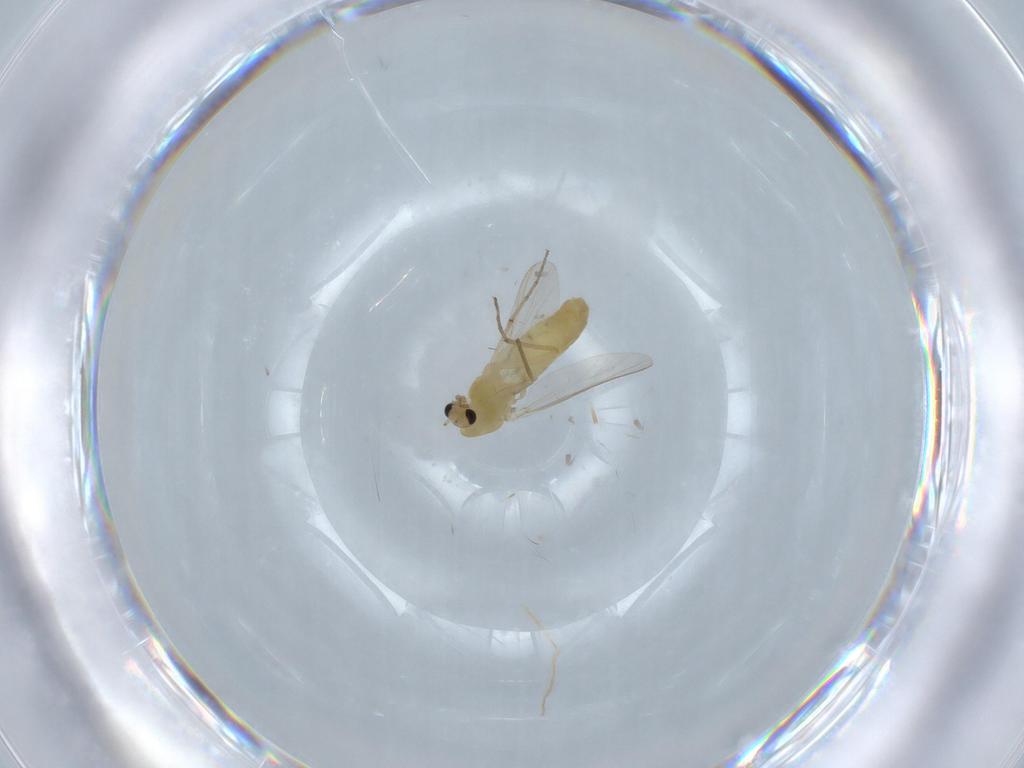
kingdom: Animalia
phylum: Arthropoda
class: Insecta
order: Diptera
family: Chironomidae
